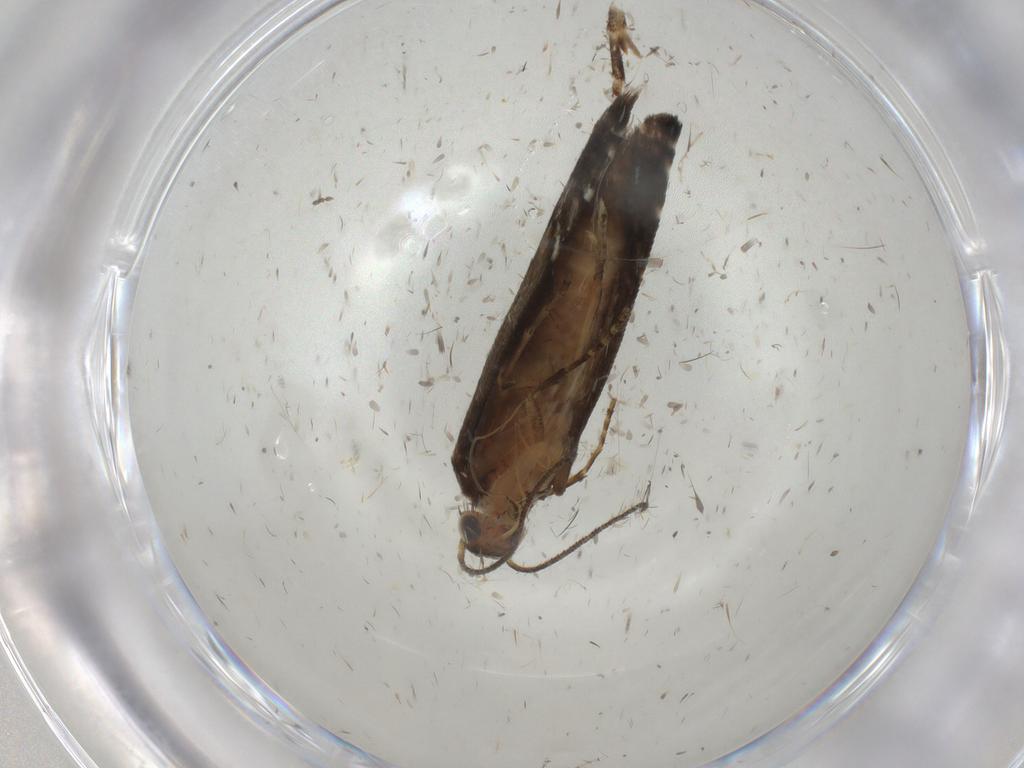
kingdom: Animalia
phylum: Arthropoda
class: Insecta
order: Lepidoptera
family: Glyphipterigidae
